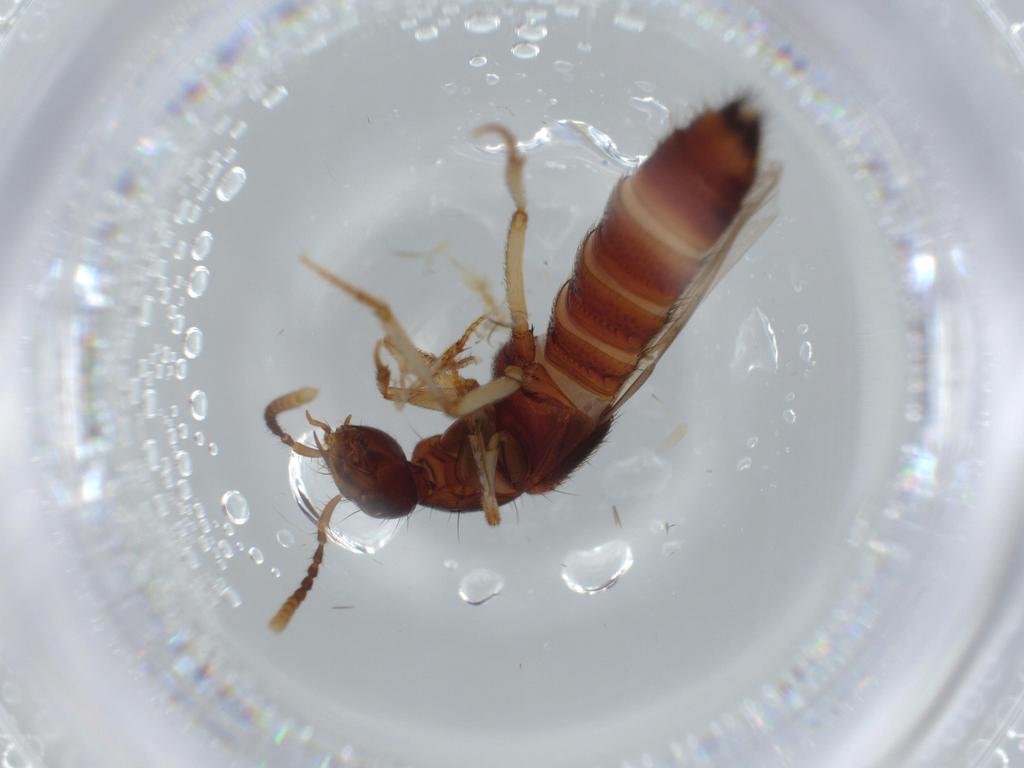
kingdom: Animalia
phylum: Arthropoda
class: Insecta
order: Coleoptera
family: Staphylinidae
